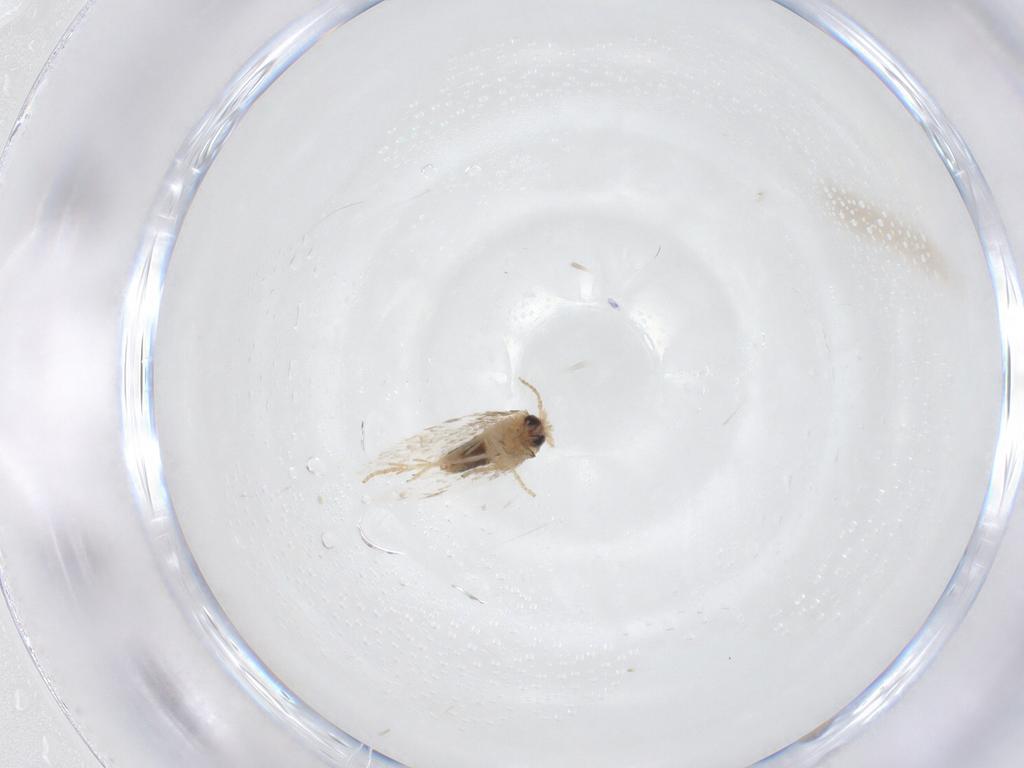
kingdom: Animalia
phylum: Arthropoda
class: Insecta
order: Lepidoptera
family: Nepticulidae
